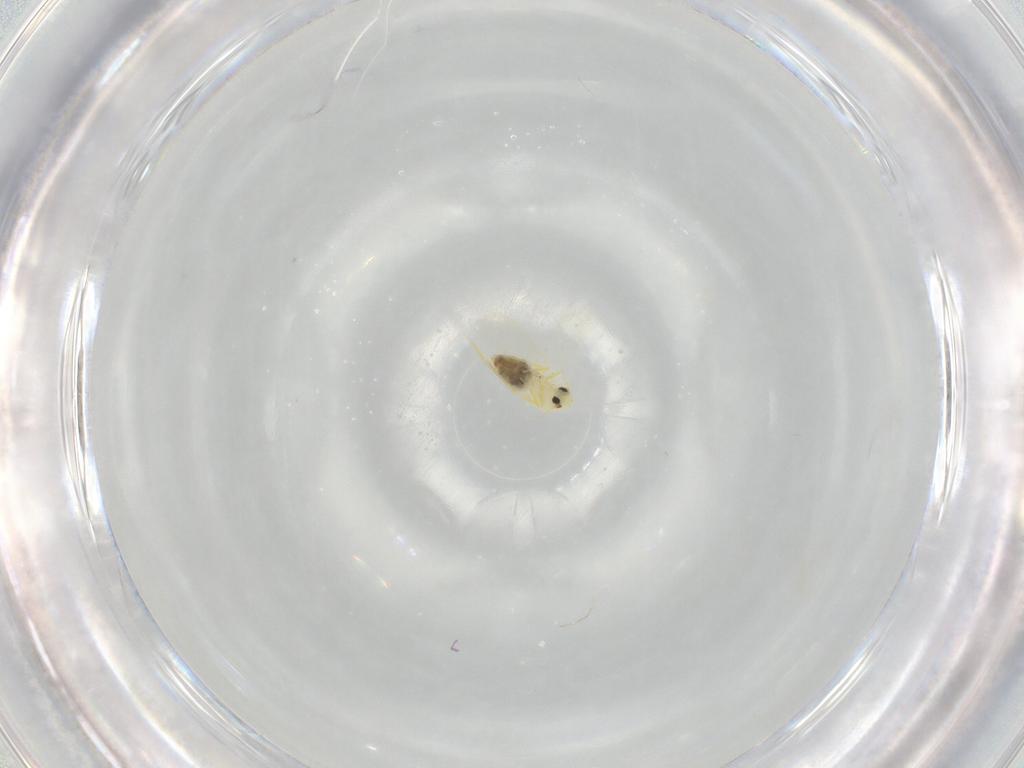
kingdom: Animalia
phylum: Arthropoda
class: Insecta
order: Hemiptera
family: Aleyrodidae
